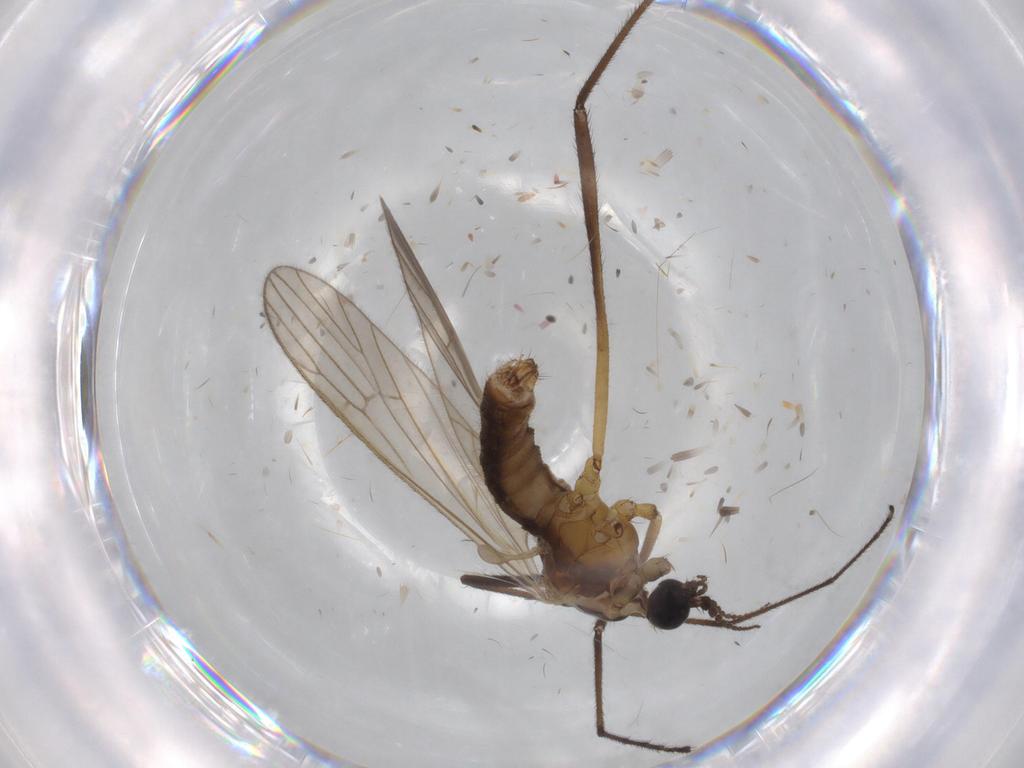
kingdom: Animalia
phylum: Arthropoda
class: Insecta
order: Diptera
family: Psychodidae
